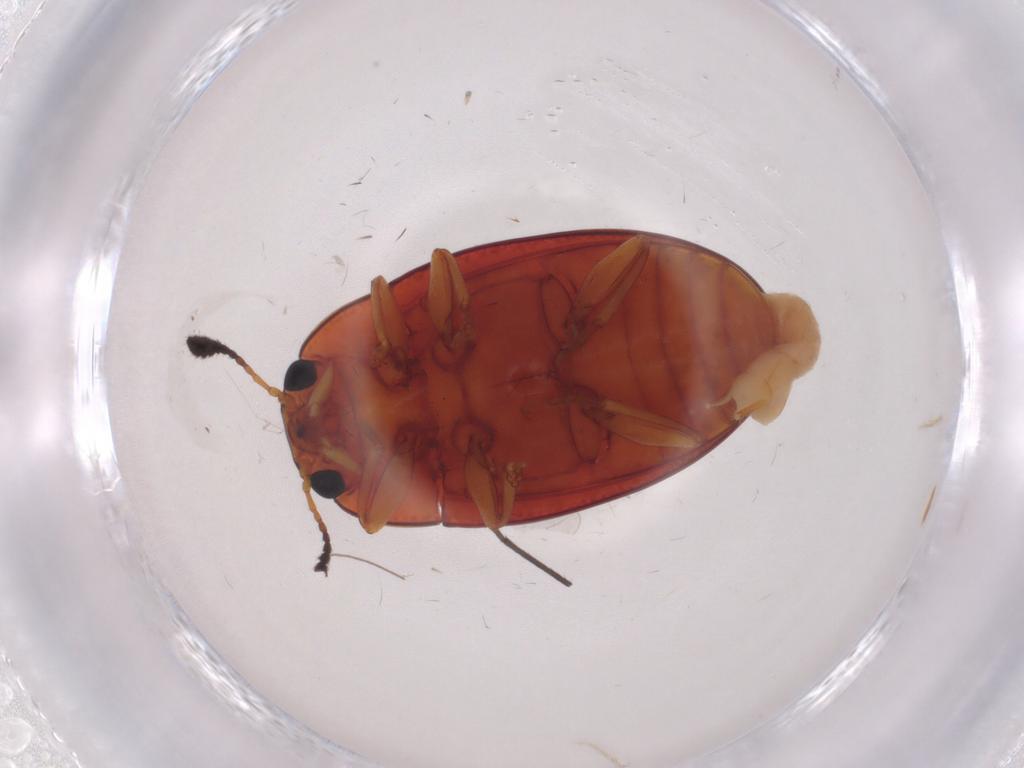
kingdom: Animalia
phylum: Arthropoda
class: Insecta
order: Coleoptera
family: Erotylidae
